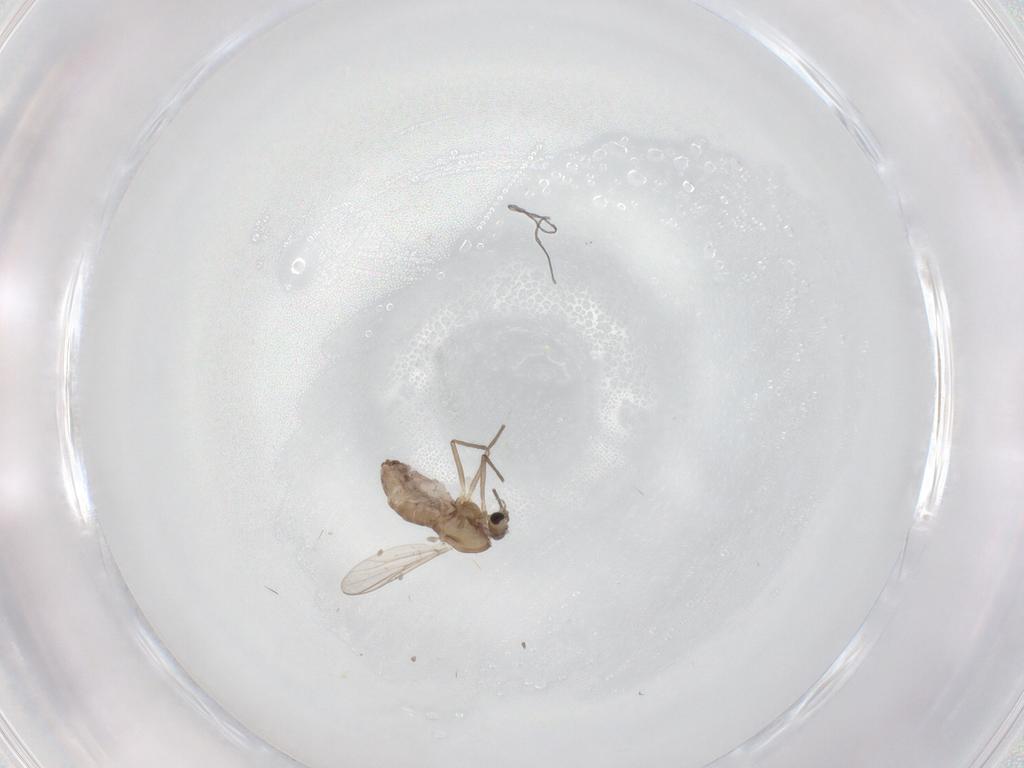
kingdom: Animalia
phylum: Arthropoda
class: Insecta
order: Diptera
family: Chironomidae
